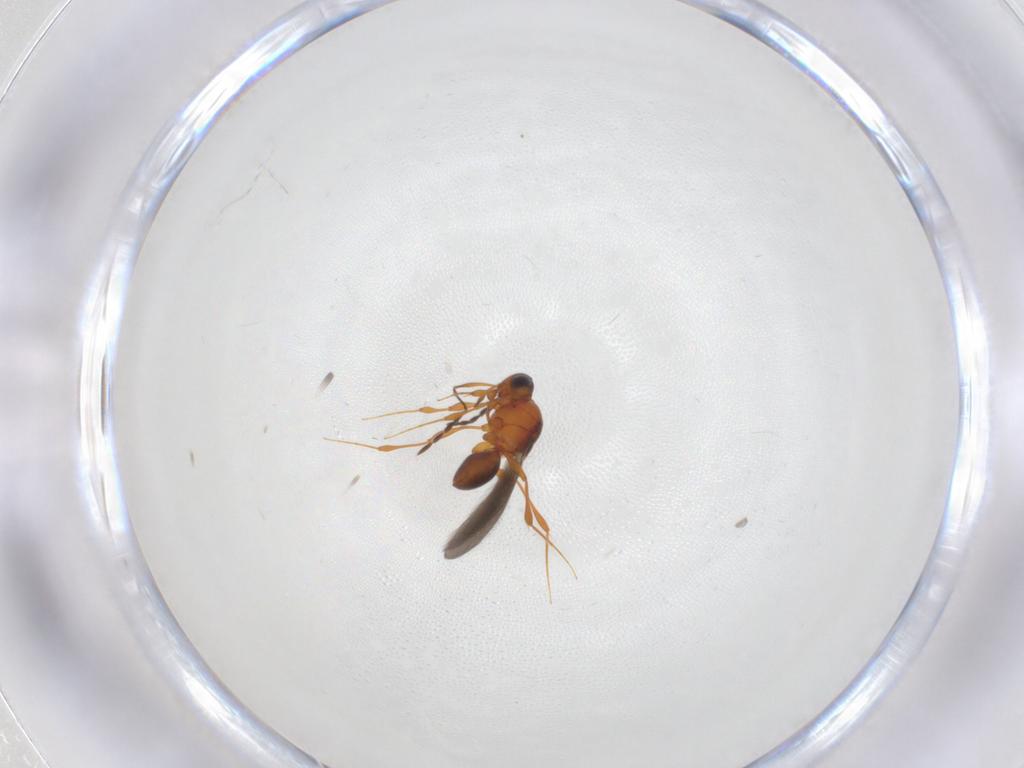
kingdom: Animalia
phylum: Arthropoda
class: Insecta
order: Hymenoptera
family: Platygastridae
